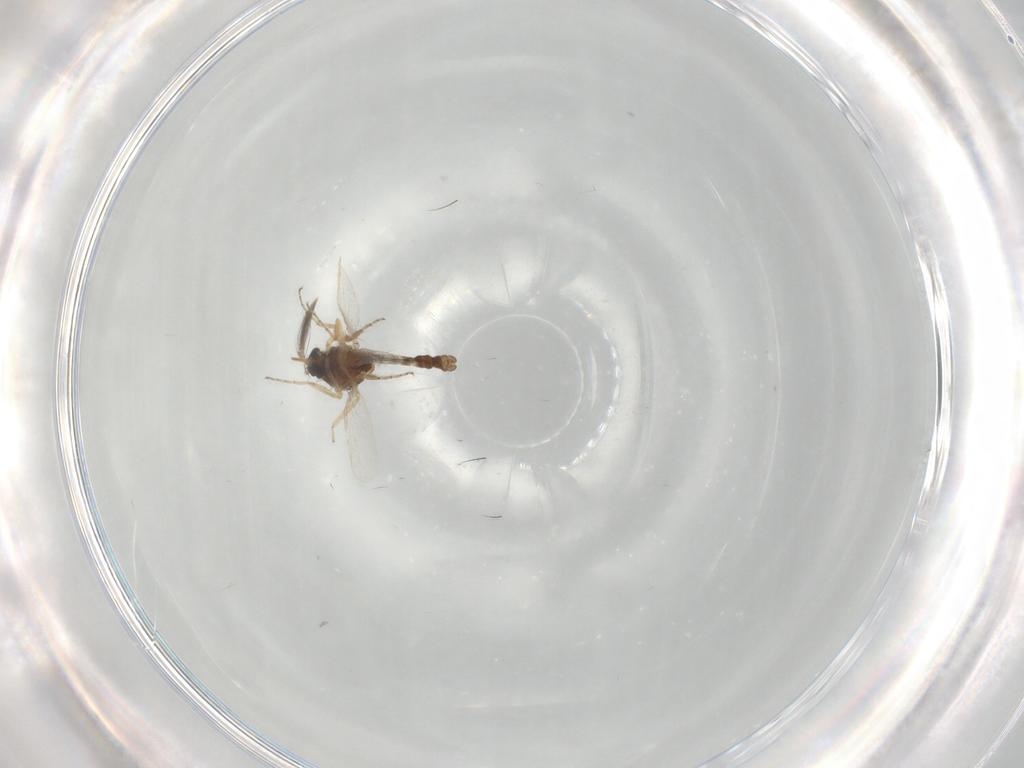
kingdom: Animalia
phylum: Arthropoda
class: Insecta
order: Diptera
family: Ceratopogonidae
